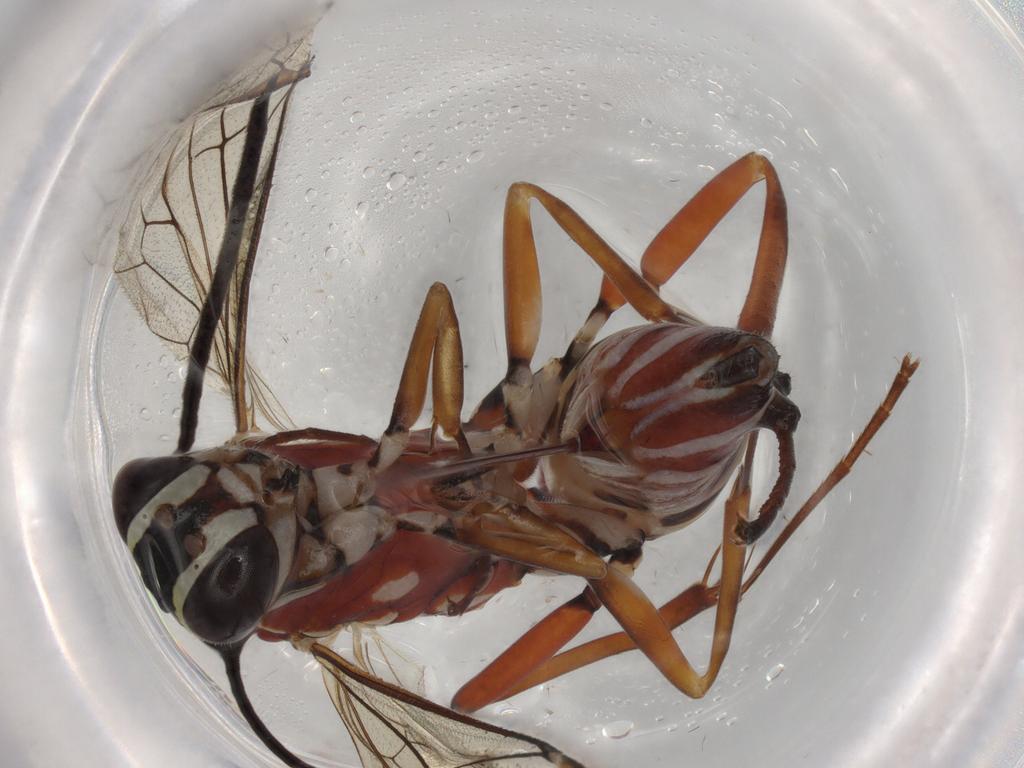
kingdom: Animalia
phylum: Arthropoda
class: Insecta
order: Hymenoptera
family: Ichneumonidae
